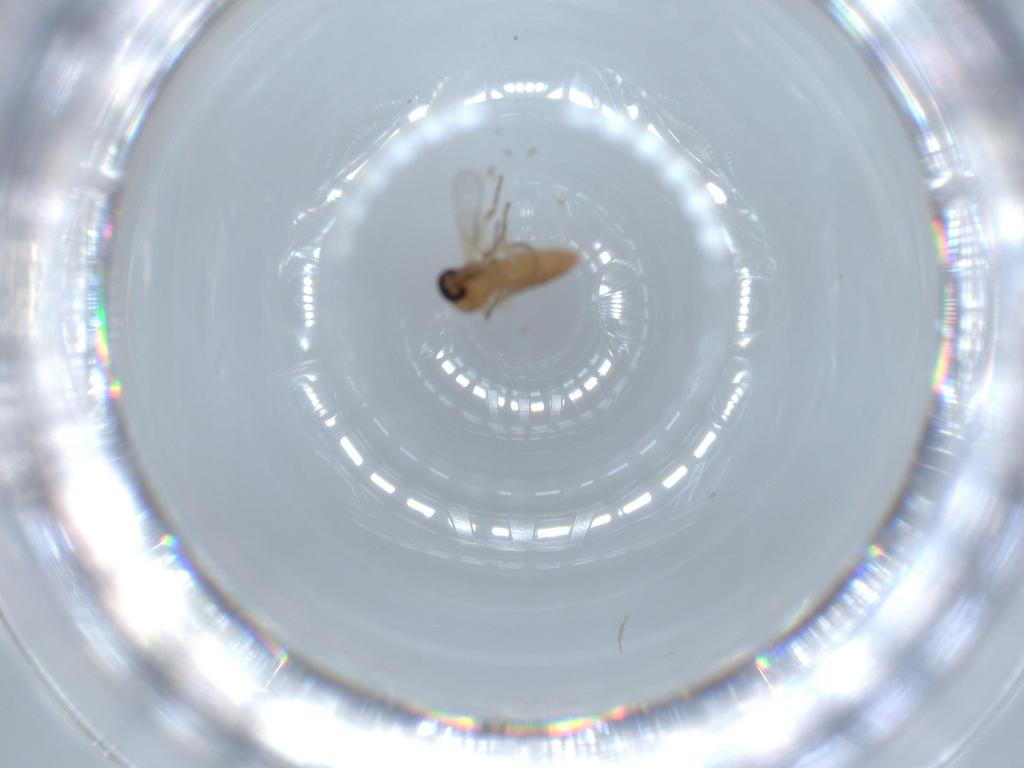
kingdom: Animalia
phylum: Arthropoda
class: Insecta
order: Diptera
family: Ceratopogonidae
